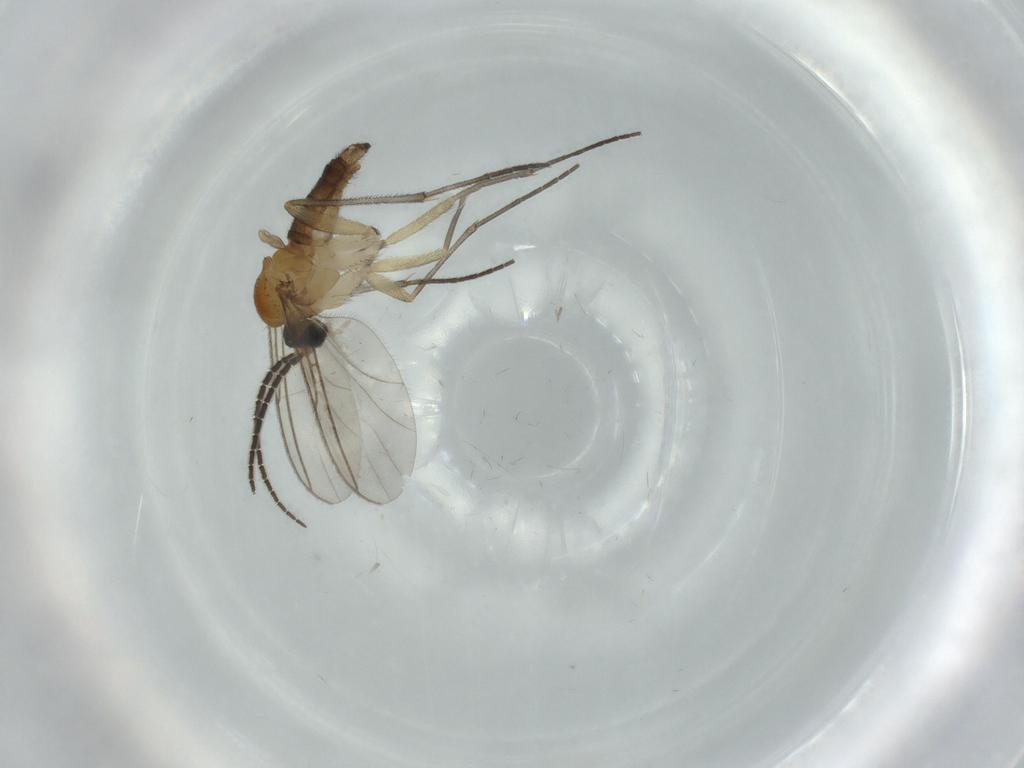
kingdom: Animalia
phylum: Arthropoda
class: Insecta
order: Diptera
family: Sciaridae
